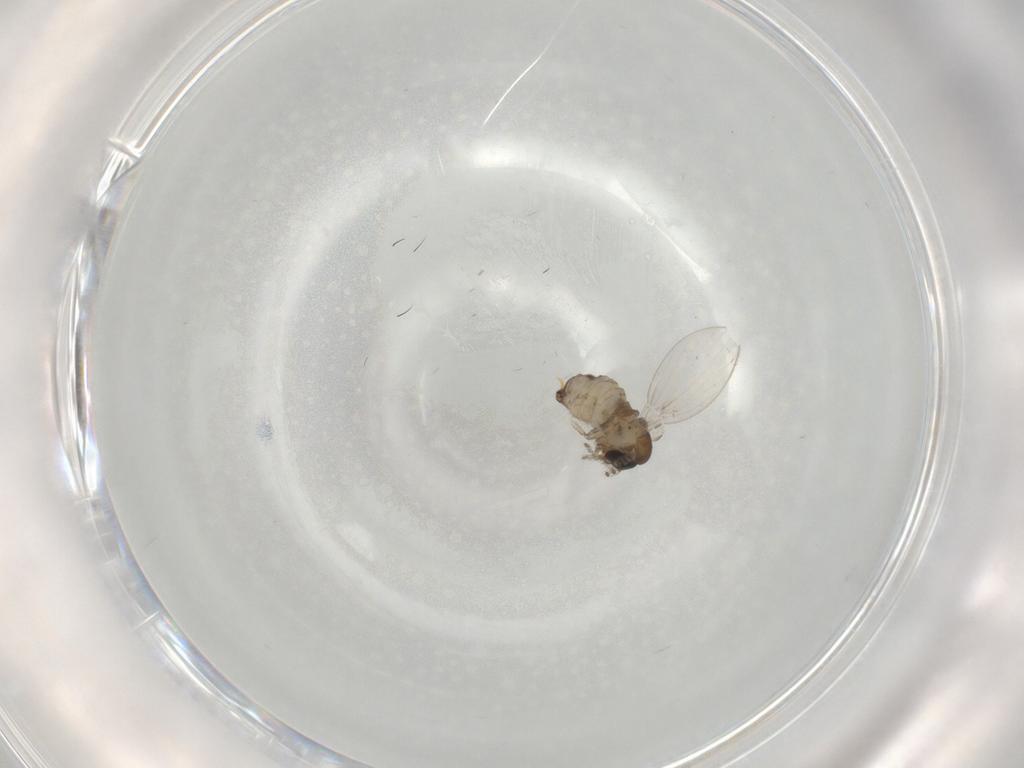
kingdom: Animalia
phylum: Arthropoda
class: Insecta
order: Diptera
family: Psychodidae
